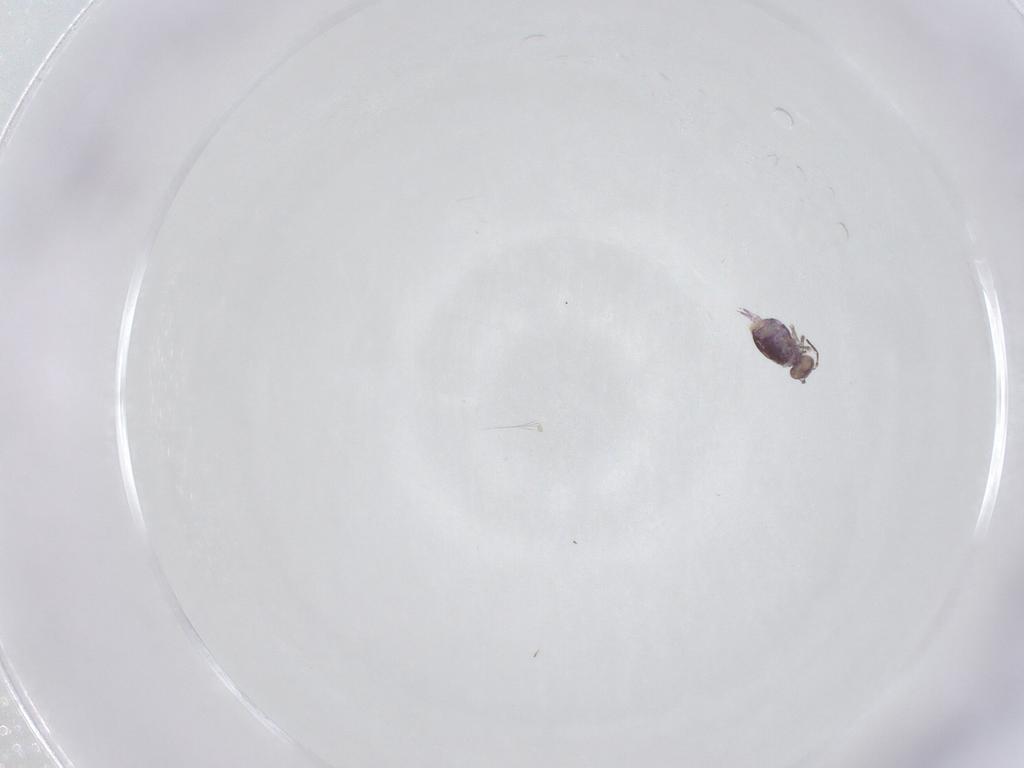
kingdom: Animalia
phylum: Arthropoda
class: Collembola
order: Symphypleona
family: Sminthuridae
